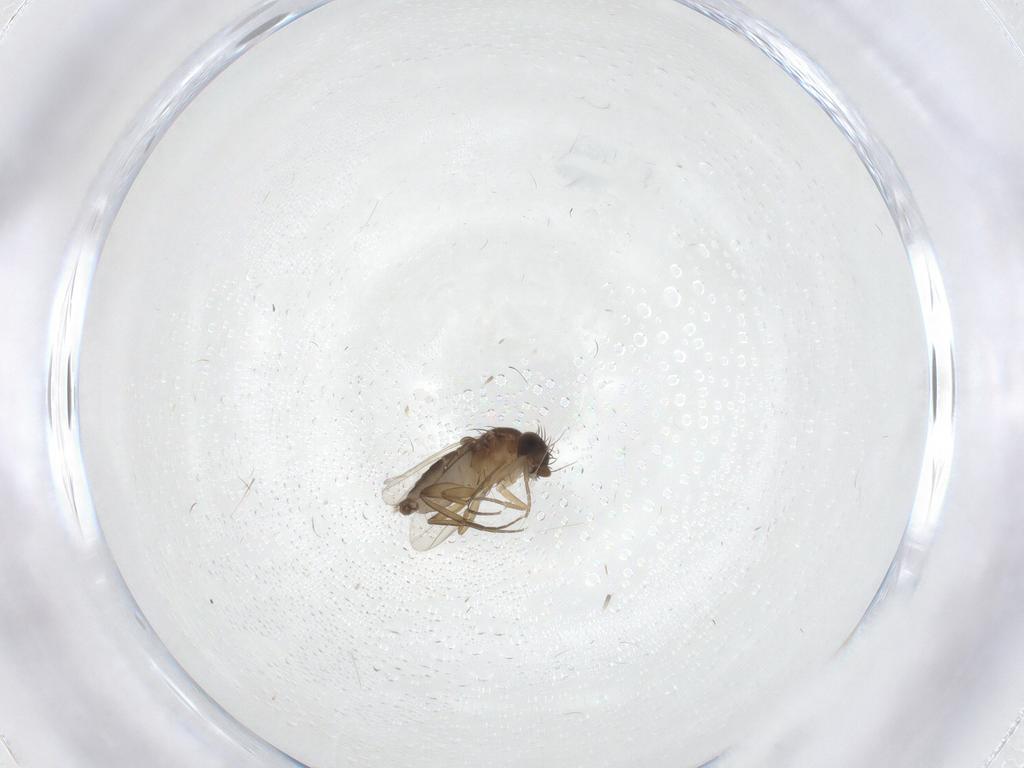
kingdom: Animalia
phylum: Arthropoda
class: Insecta
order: Diptera
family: Phoridae
